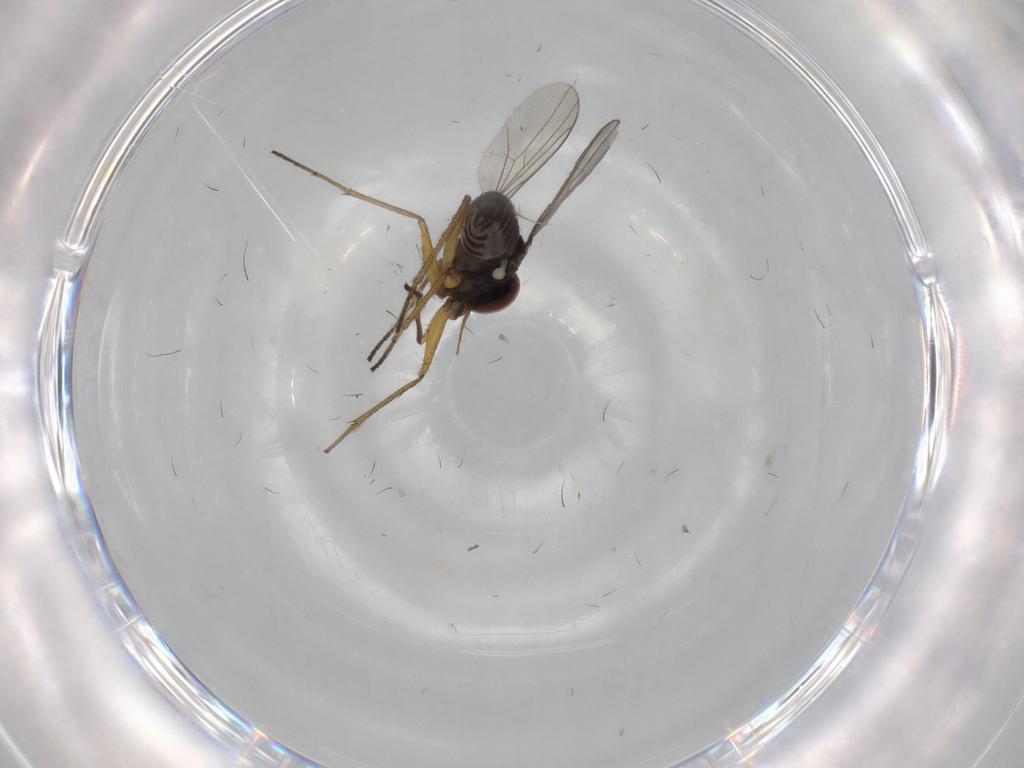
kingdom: Animalia
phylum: Arthropoda
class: Insecta
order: Diptera
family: Dolichopodidae
